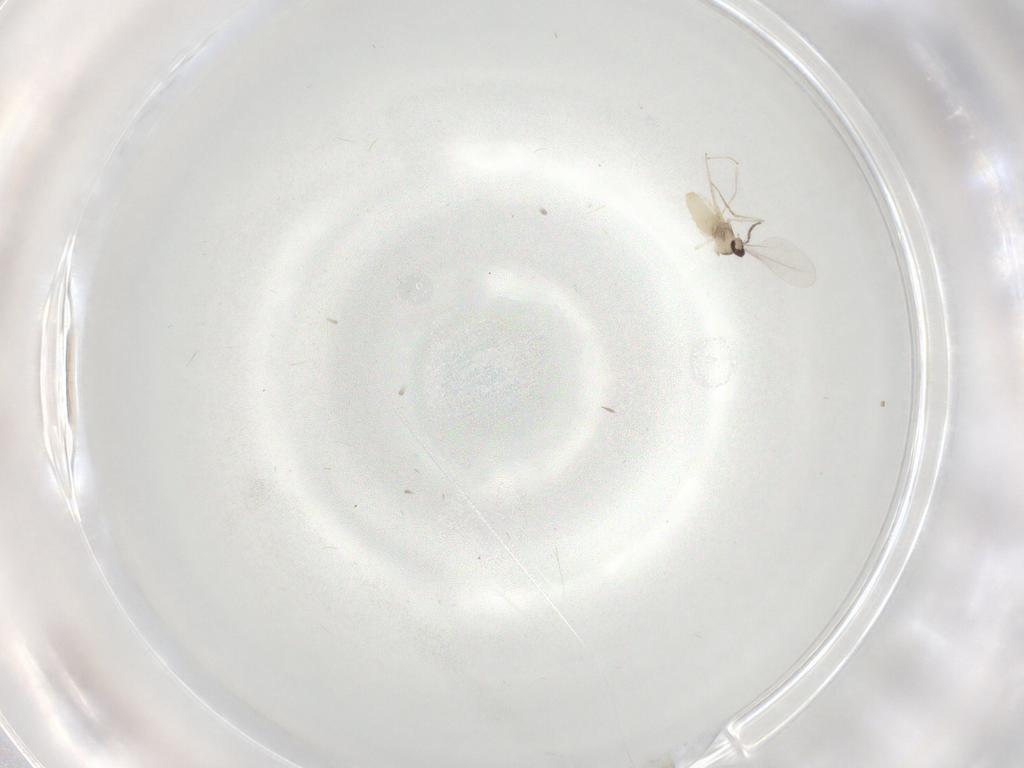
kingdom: Animalia
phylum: Arthropoda
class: Insecta
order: Diptera
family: Cecidomyiidae
